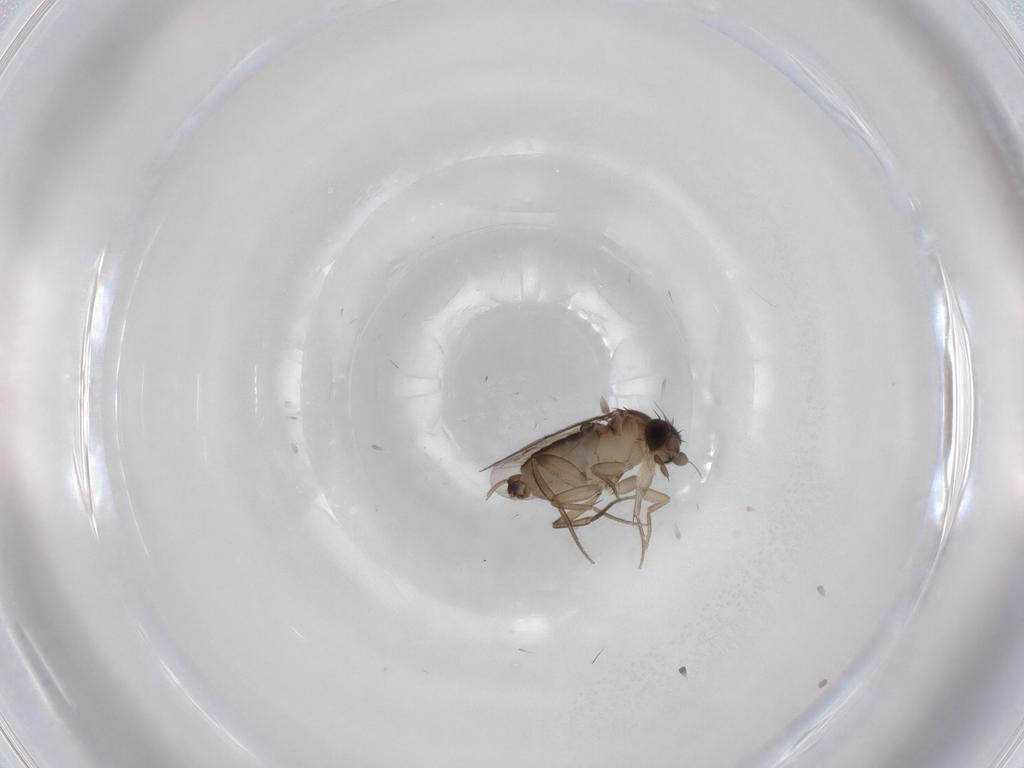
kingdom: Animalia
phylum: Arthropoda
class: Insecta
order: Diptera
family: Phoridae
